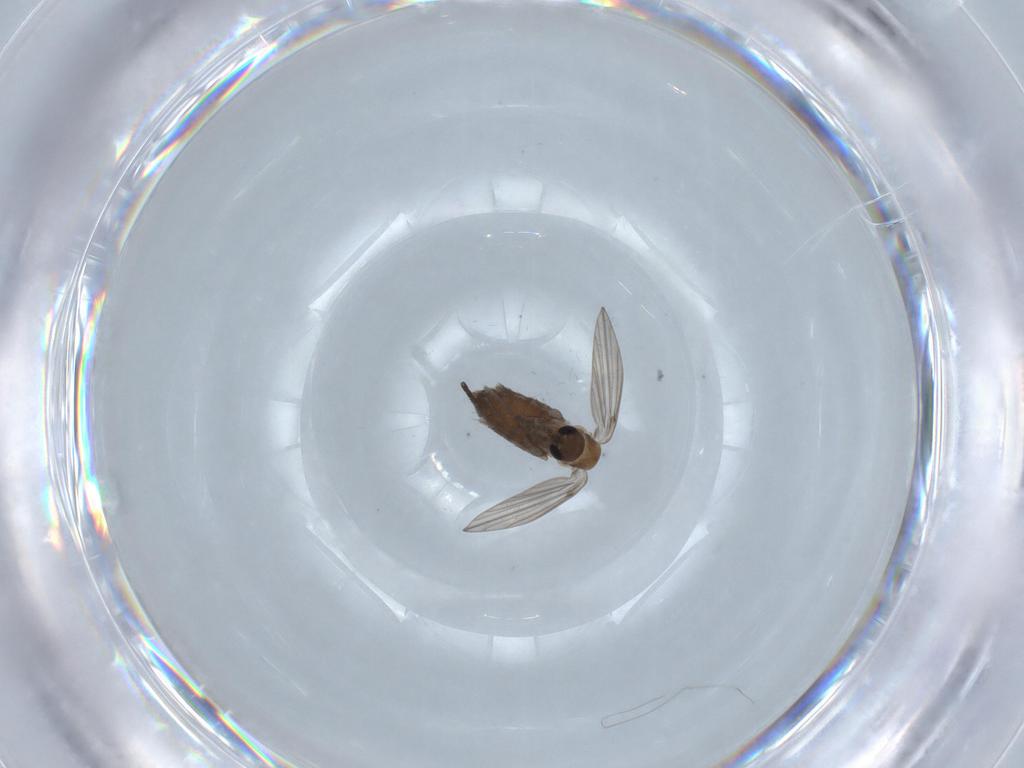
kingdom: Animalia
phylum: Arthropoda
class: Insecta
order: Diptera
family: Psychodidae
